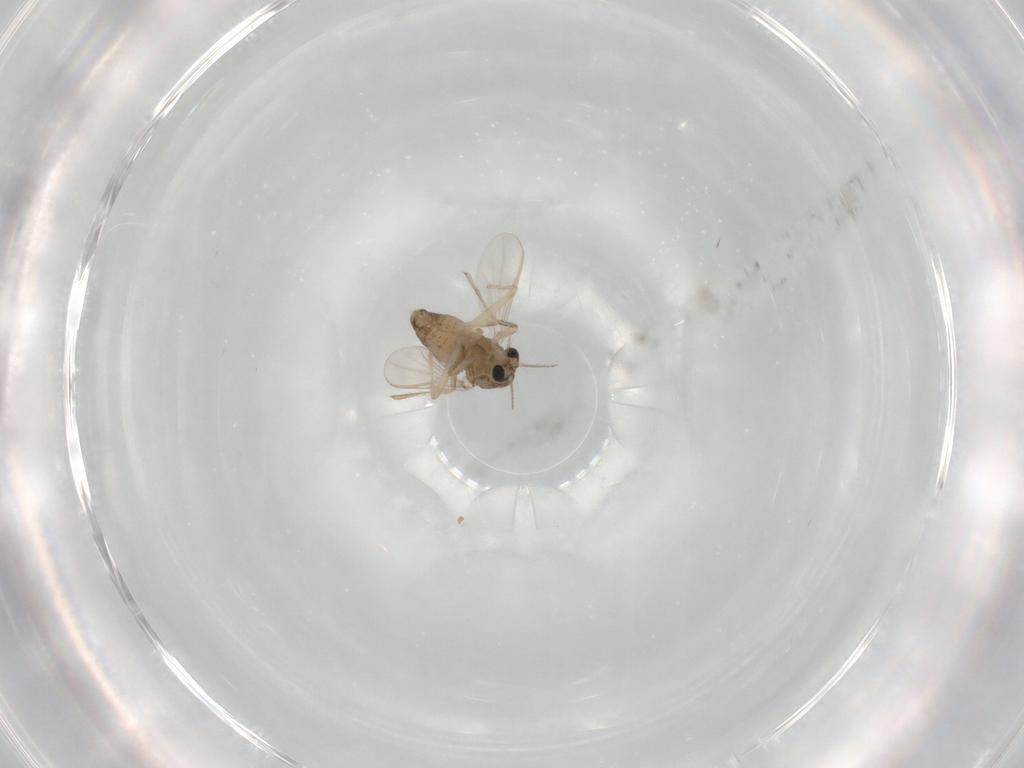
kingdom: Animalia
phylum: Arthropoda
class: Insecta
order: Diptera
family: Chironomidae
